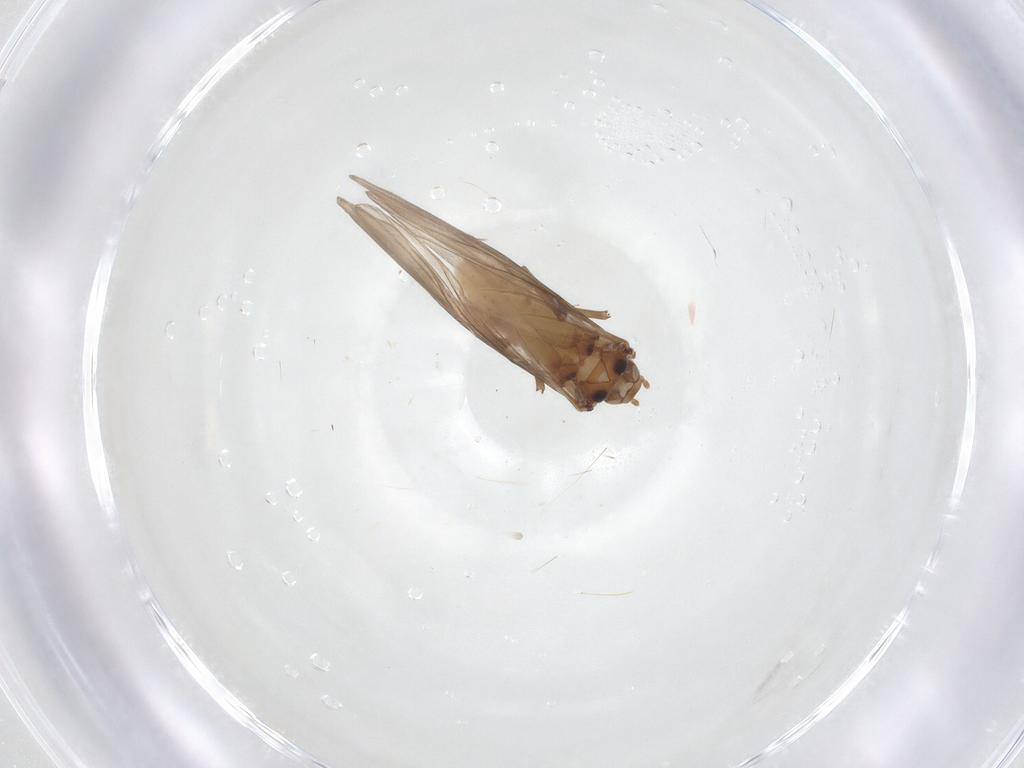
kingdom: Animalia
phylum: Arthropoda
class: Insecta
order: Neuroptera
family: Coniopterygidae
